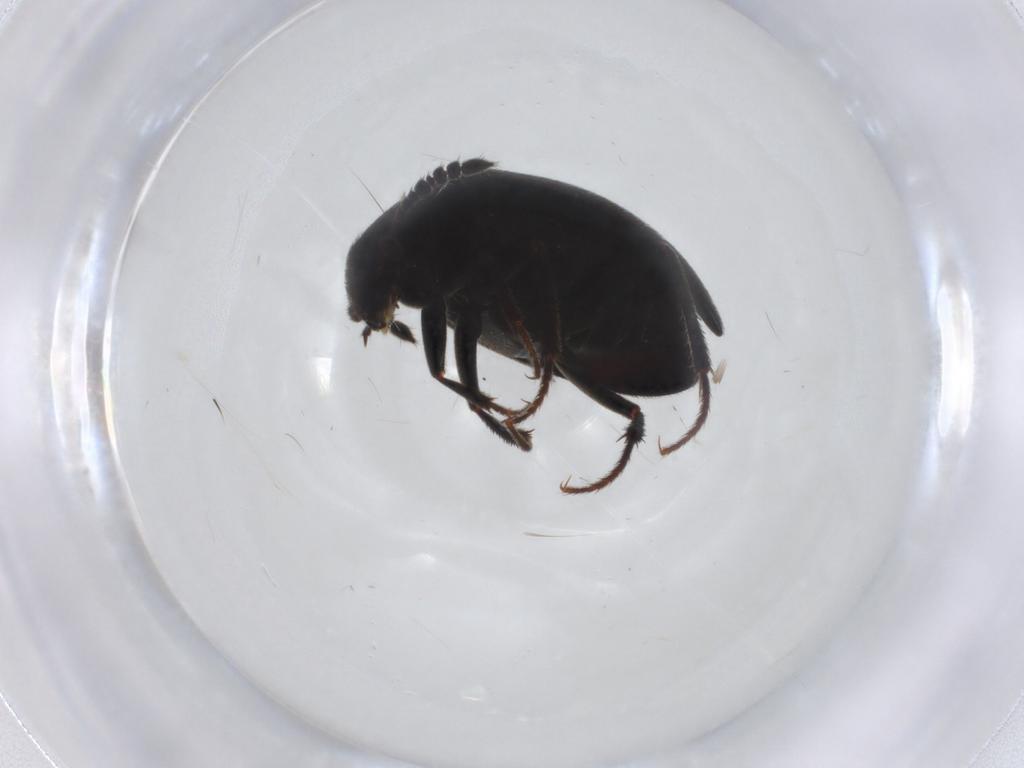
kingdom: Animalia
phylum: Arthropoda
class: Insecta
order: Coleoptera
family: Leiodidae
